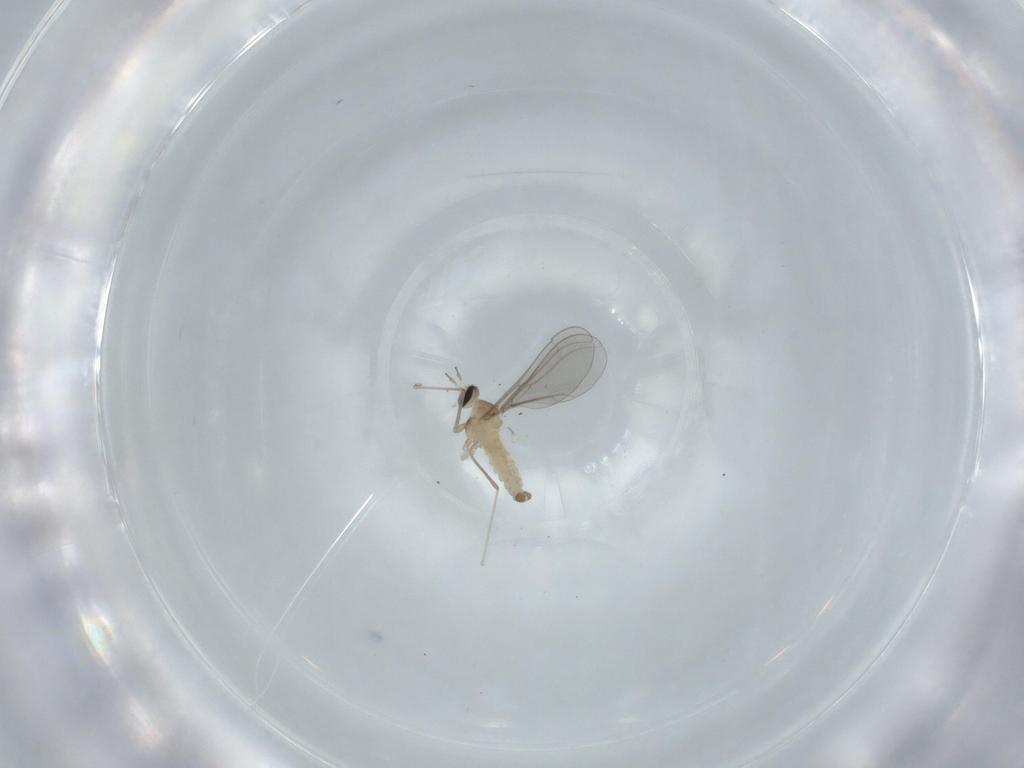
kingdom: Animalia
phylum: Arthropoda
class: Insecta
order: Diptera
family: Cecidomyiidae
